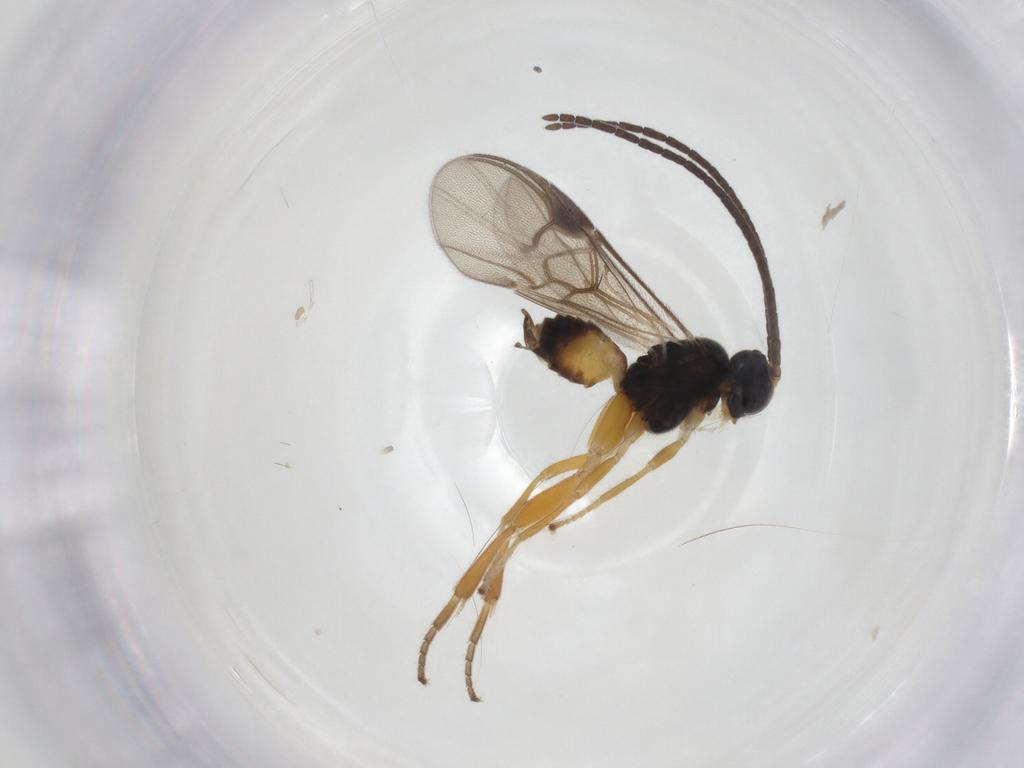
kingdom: Animalia
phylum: Arthropoda
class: Insecta
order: Hymenoptera
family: Braconidae
